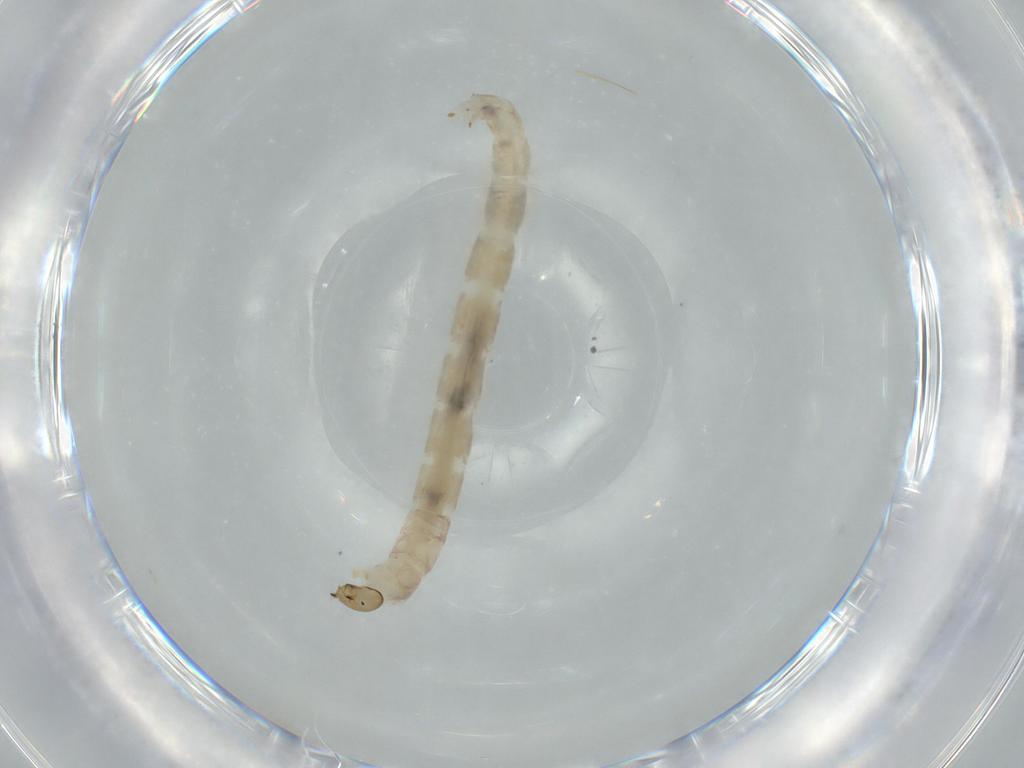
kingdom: Animalia
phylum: Arthropoda
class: Insecta
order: Diptera
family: Chironomidae
